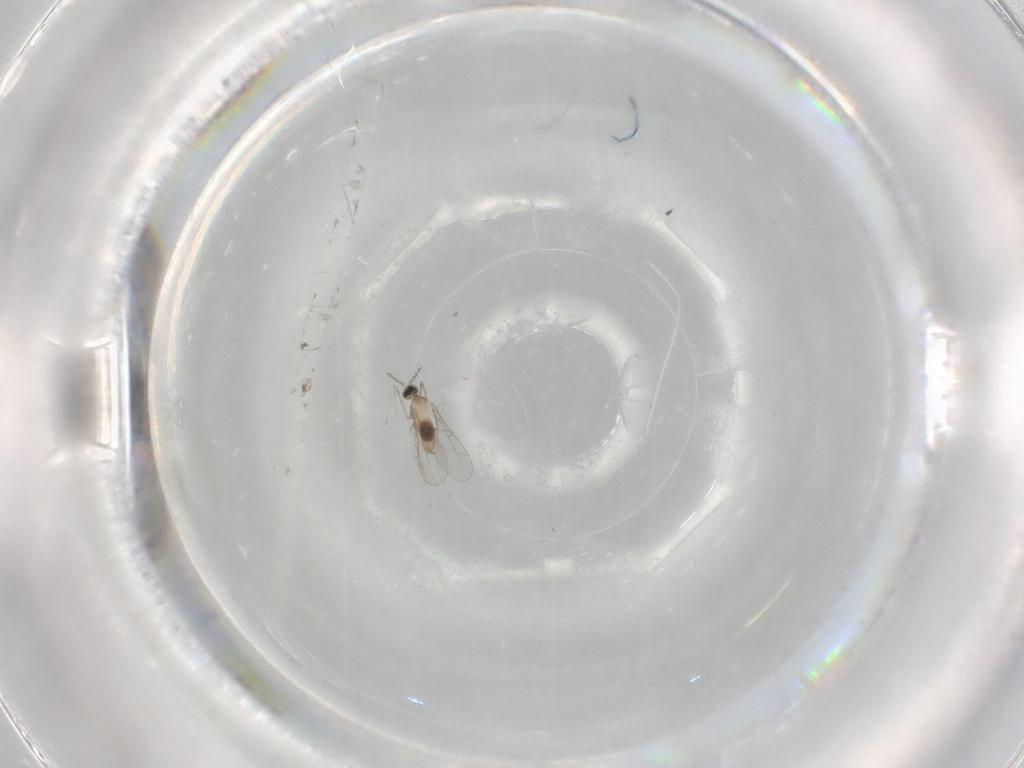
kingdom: Animalia
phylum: Arthropoda
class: Insecta
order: Diptera
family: Cecidomyiidae
